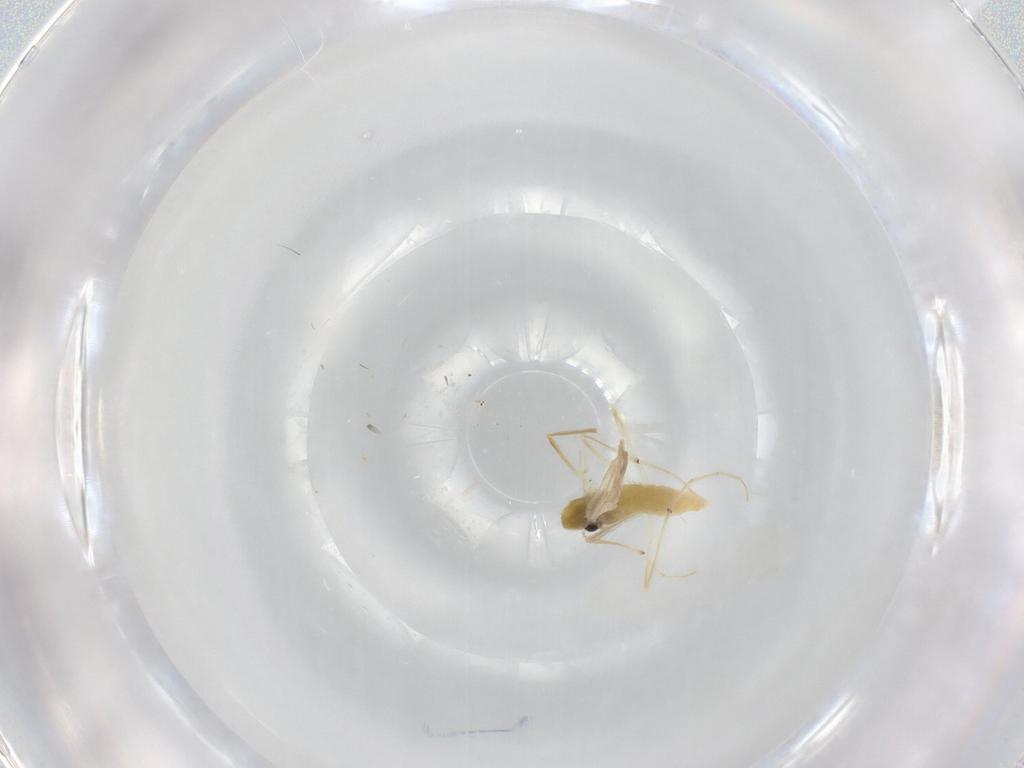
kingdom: Animalia
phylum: Arthropoda
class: Insecta
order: Diptera
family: Chironomidae
